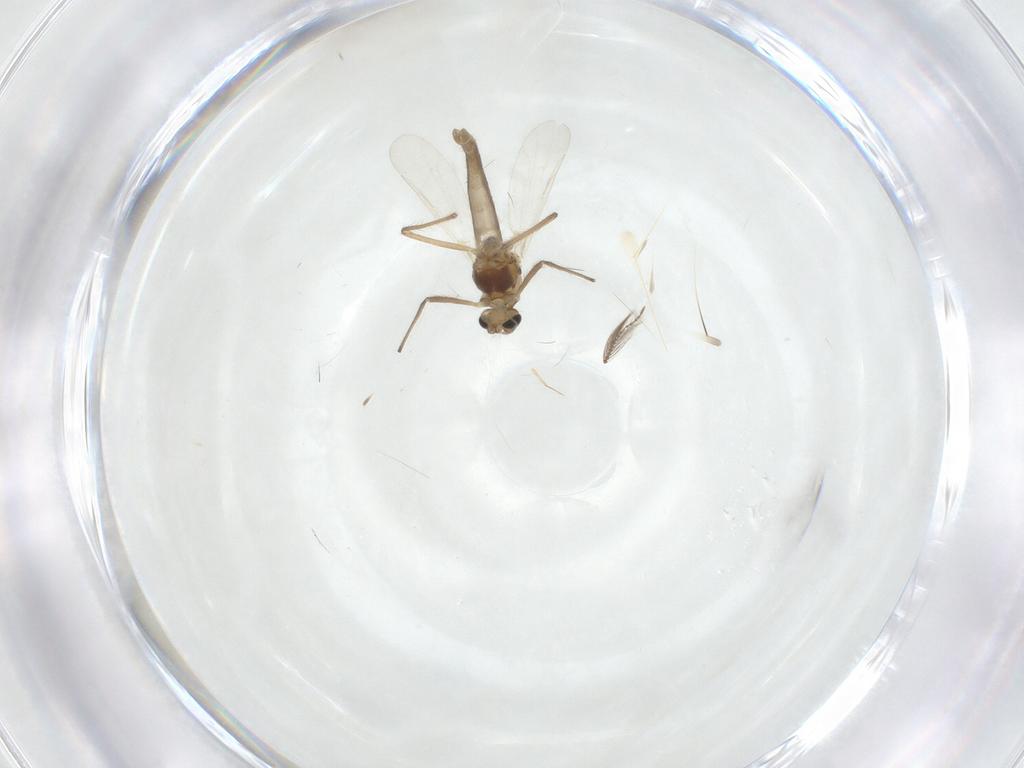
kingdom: Animalia
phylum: Arthropoda
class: Insecta
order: Diptera
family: Chironomidae
